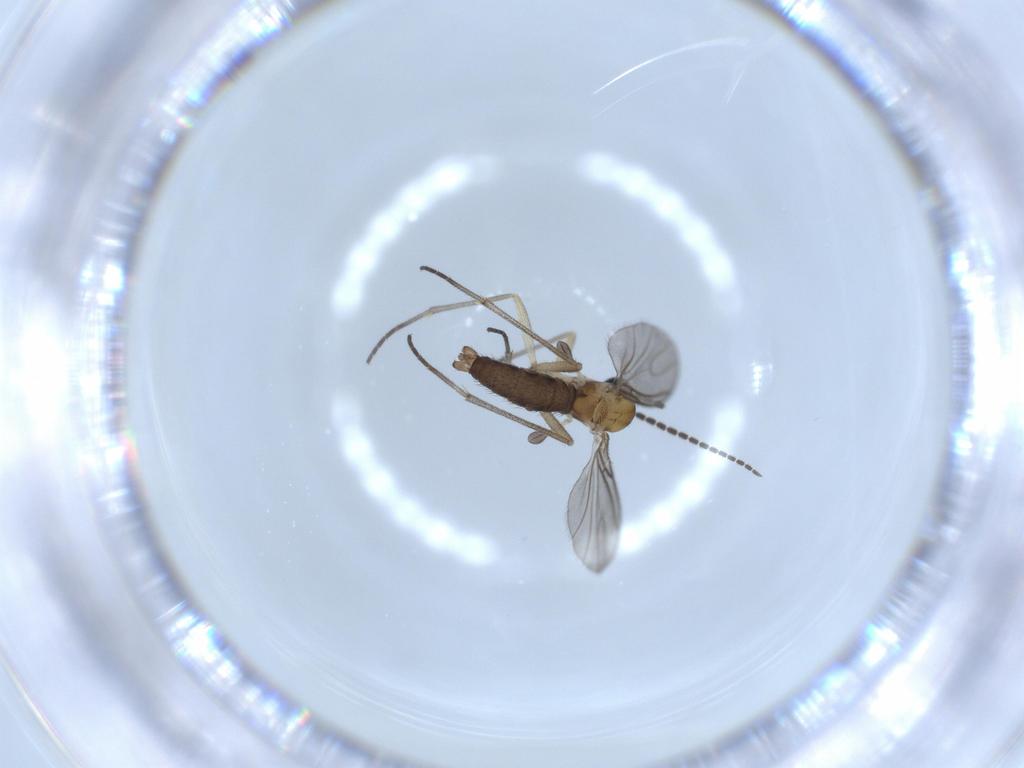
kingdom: Animalia
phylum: Arthropoda
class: Insecta
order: Diptera
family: Sciaridae
